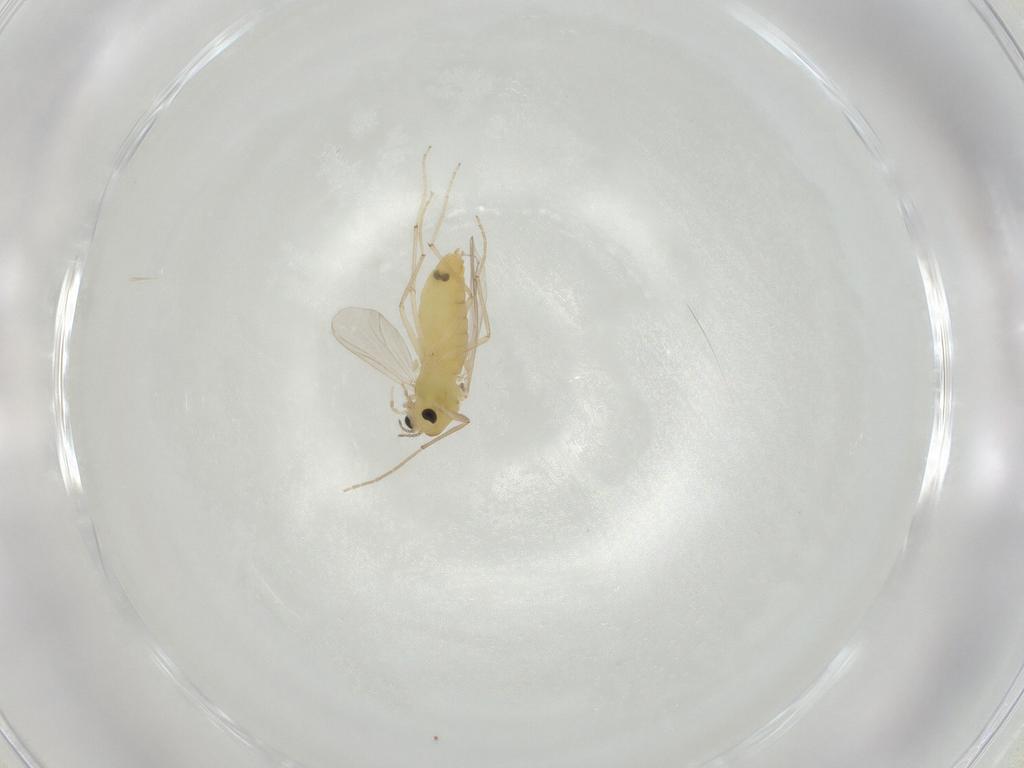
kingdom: Animalia
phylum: Arthropoda
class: Insecta
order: Diptera
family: Chironomidae
